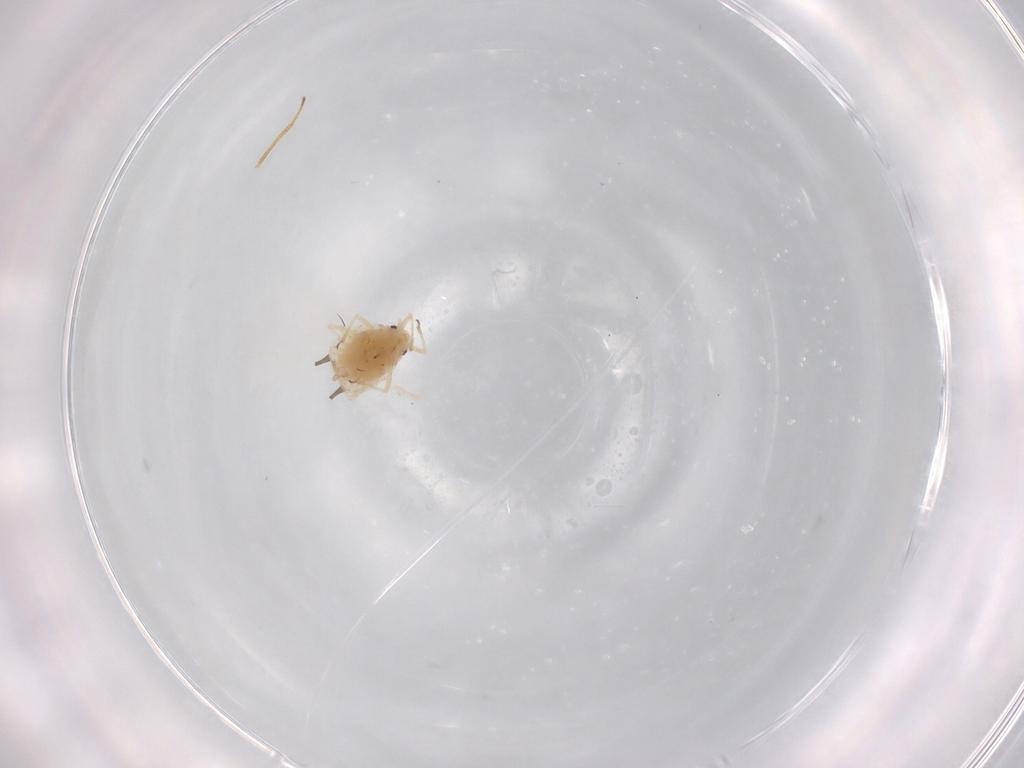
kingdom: Animalia
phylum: Arthropoda
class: Insecta
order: Hemiptera
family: Aphididae
